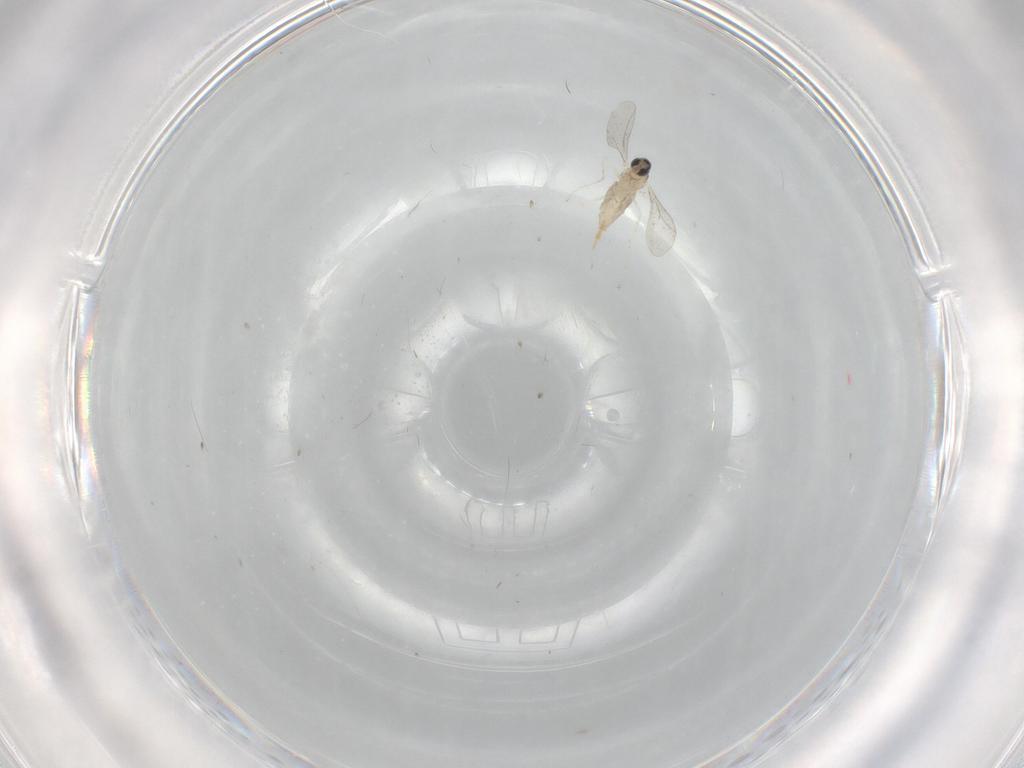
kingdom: Animalia
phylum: Arthropoda
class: Insecta
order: Diptera
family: Cecidomyiidae
